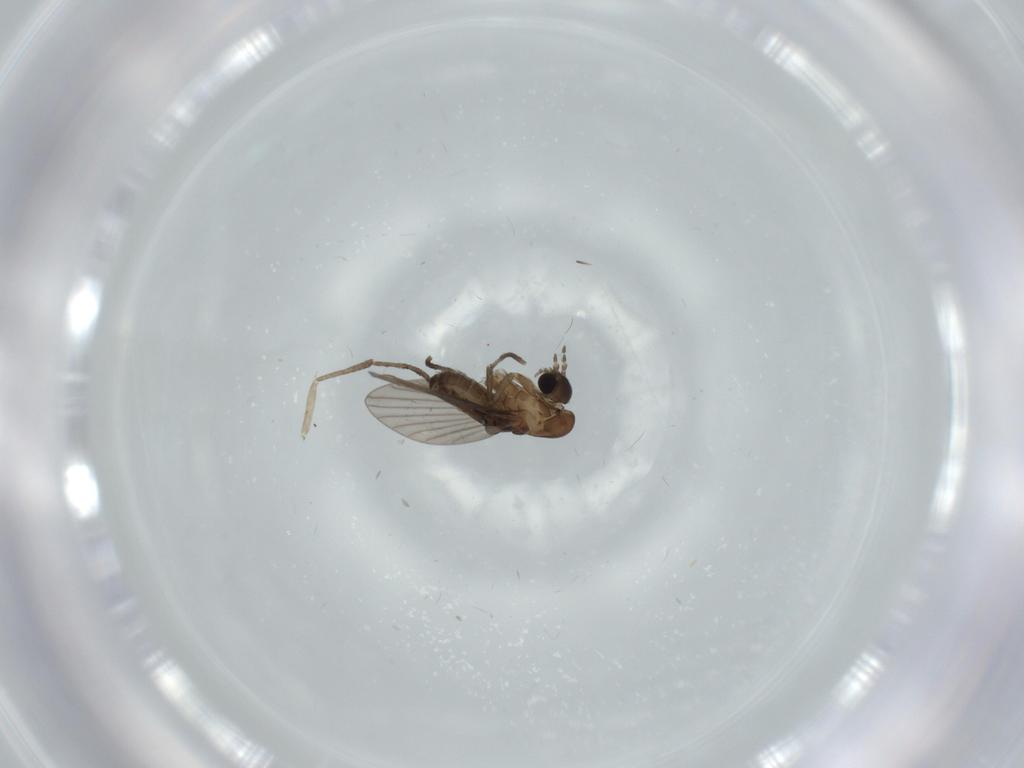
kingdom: Animalia
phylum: Arthropoda
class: Insecta
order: Diptera
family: Psychodidae
